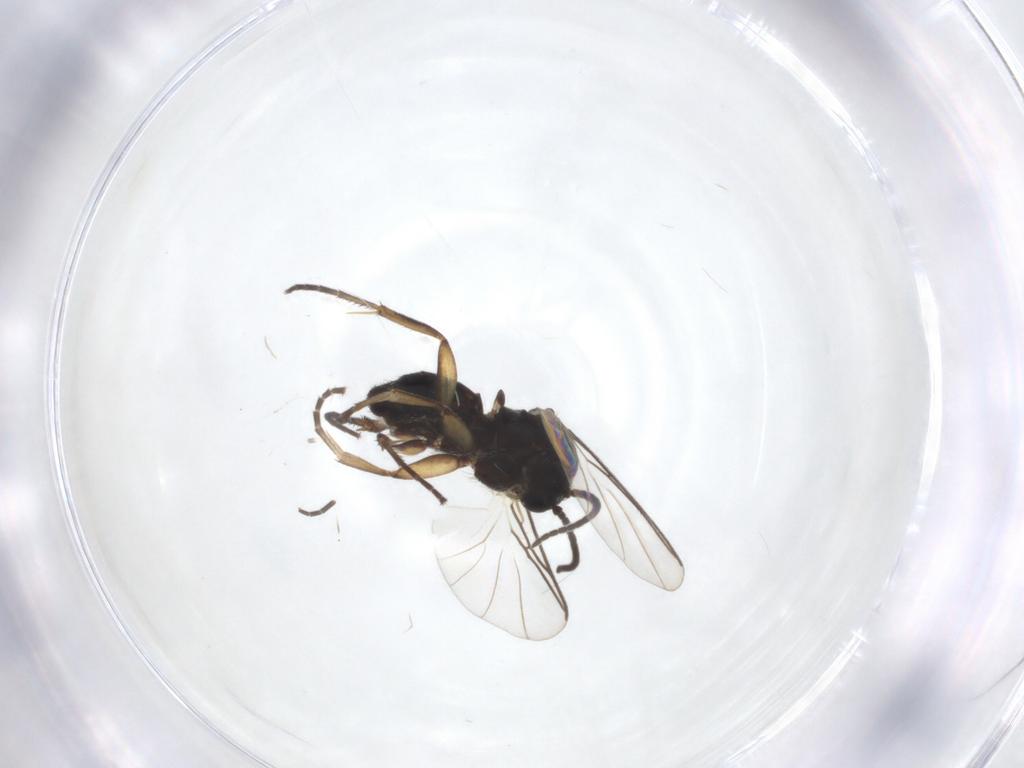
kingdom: Animalia
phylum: Arthropoda
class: Insecta
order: Diptera
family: Mycetophilidae
